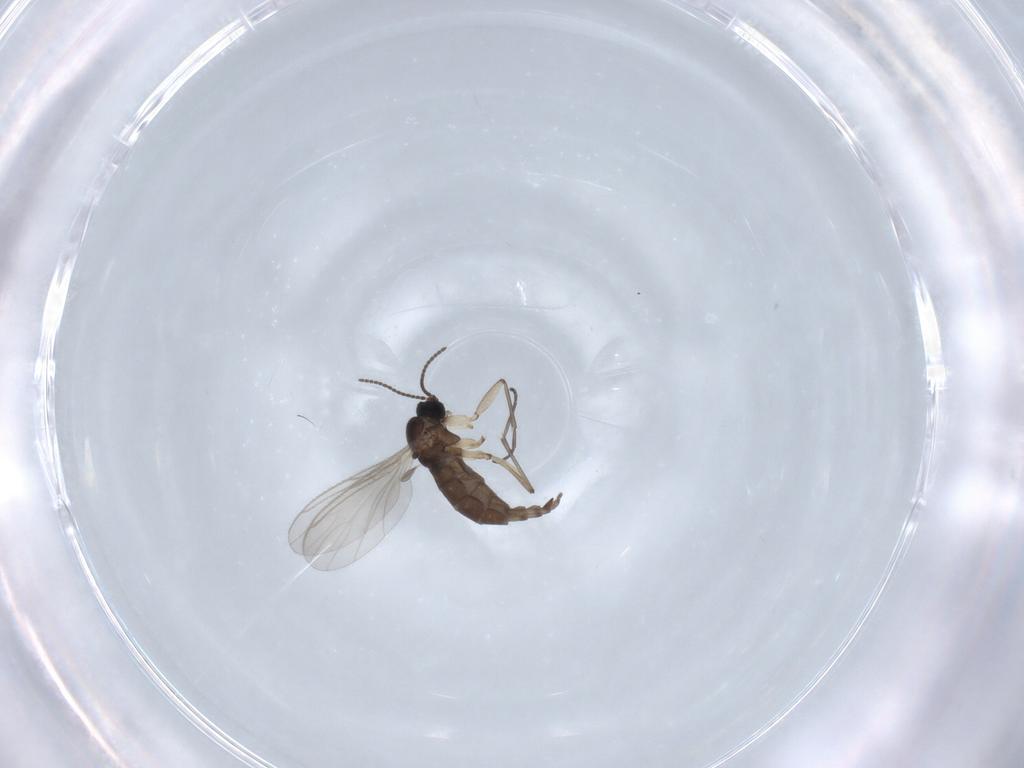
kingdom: Animalia
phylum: Arthropoda
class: Insecta
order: Diptera
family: Sciaridae
